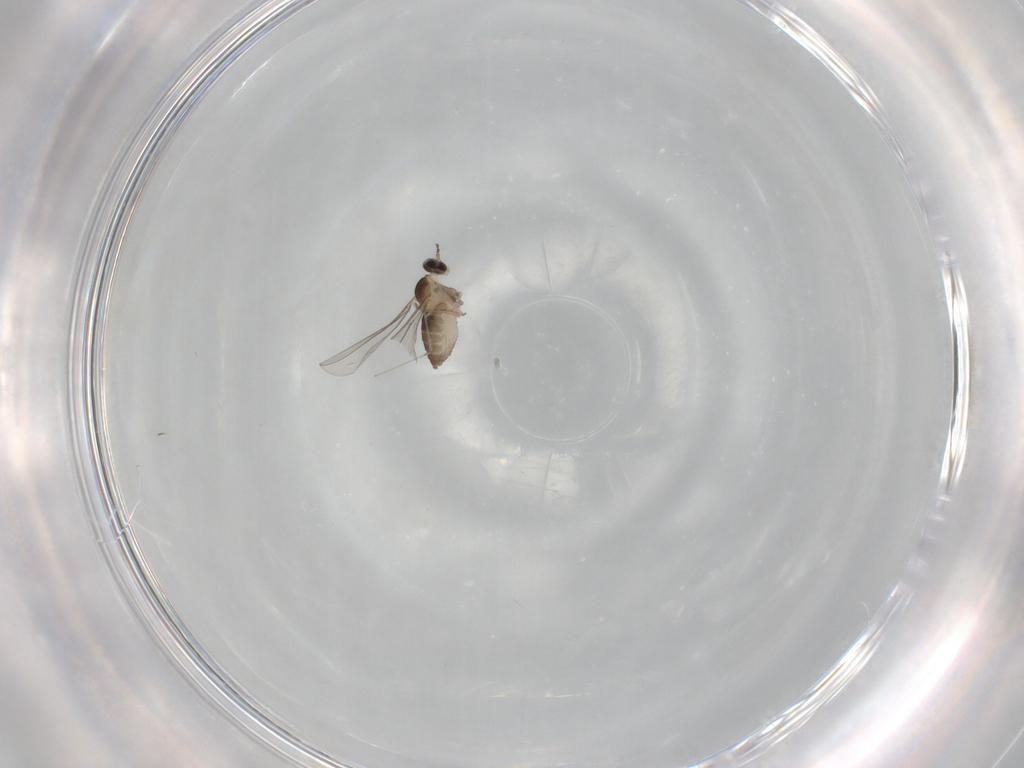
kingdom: Animalia
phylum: Arthropoda
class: Insecta
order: Diptera
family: Cecidomyiidae
